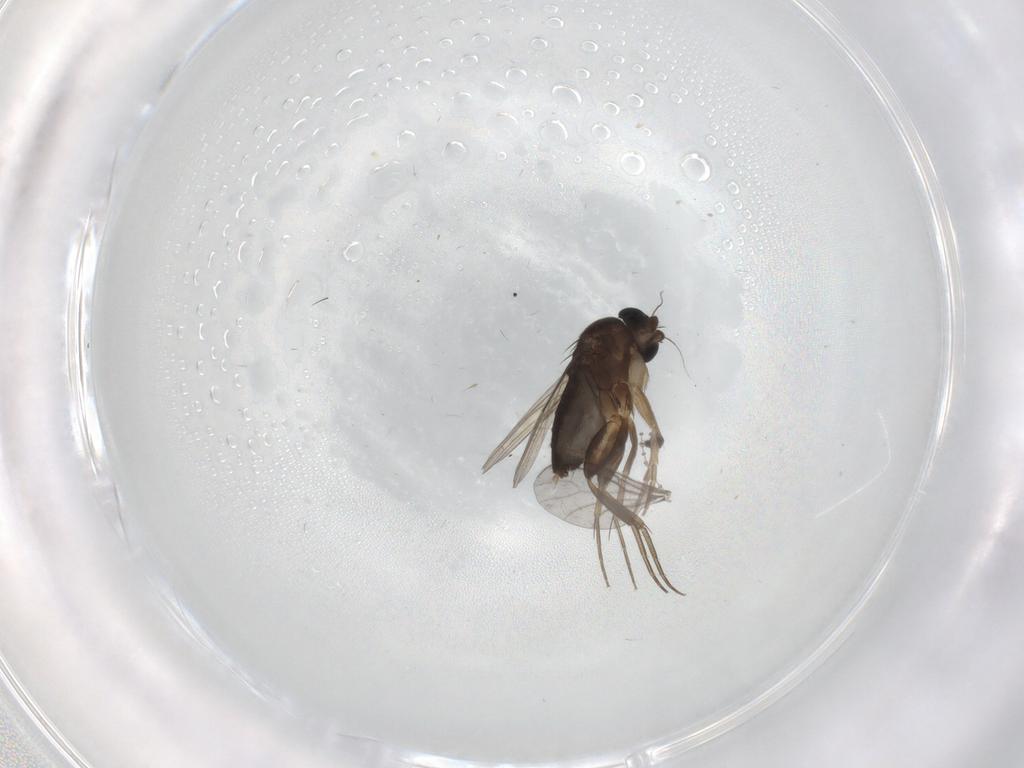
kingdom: Animalia
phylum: Arthropoda
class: Insecta
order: Diptera
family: Phoridae
